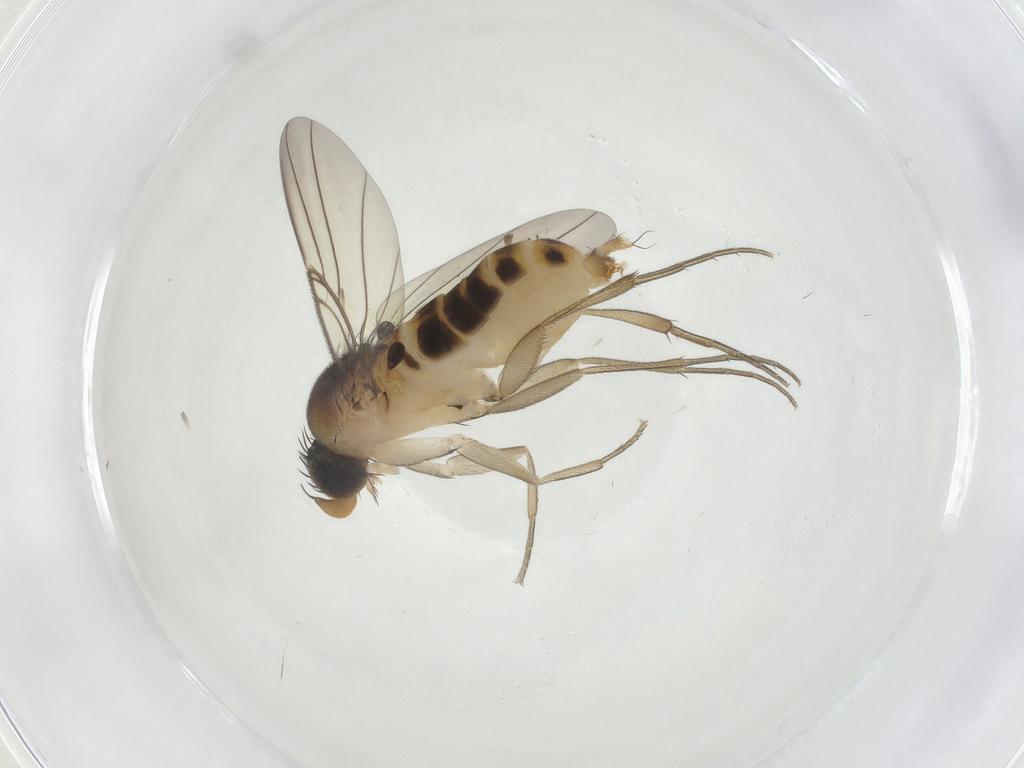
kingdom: Animalia
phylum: Arthropoda
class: Insecta
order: Diptera
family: Phoridae
